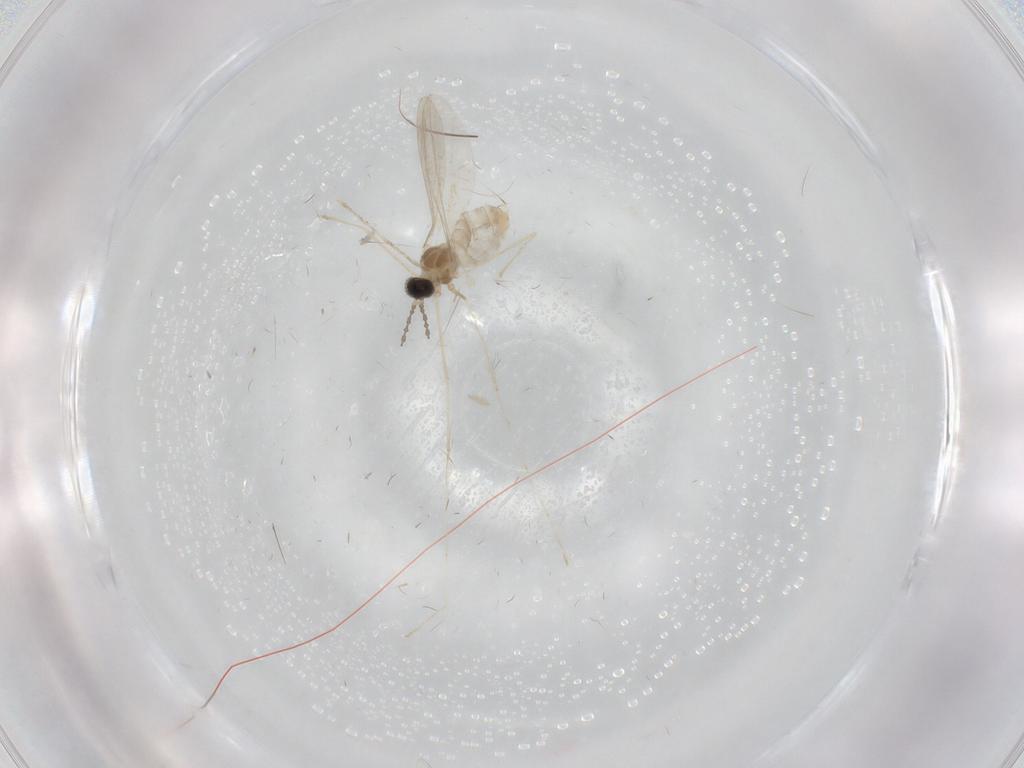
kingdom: Animalia
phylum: Arthropoda
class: Insecta
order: Diptera
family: Cecidomyiidae
